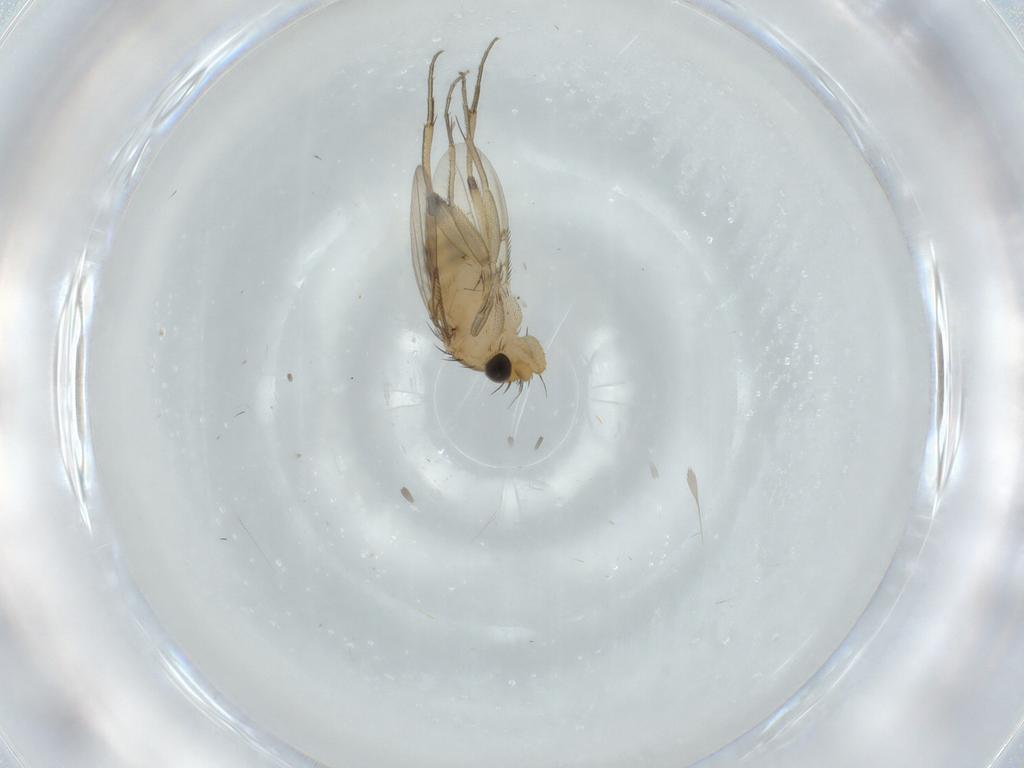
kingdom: Animalia
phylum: Arthropoda
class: Insecta
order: Diptera
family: Phoridae
